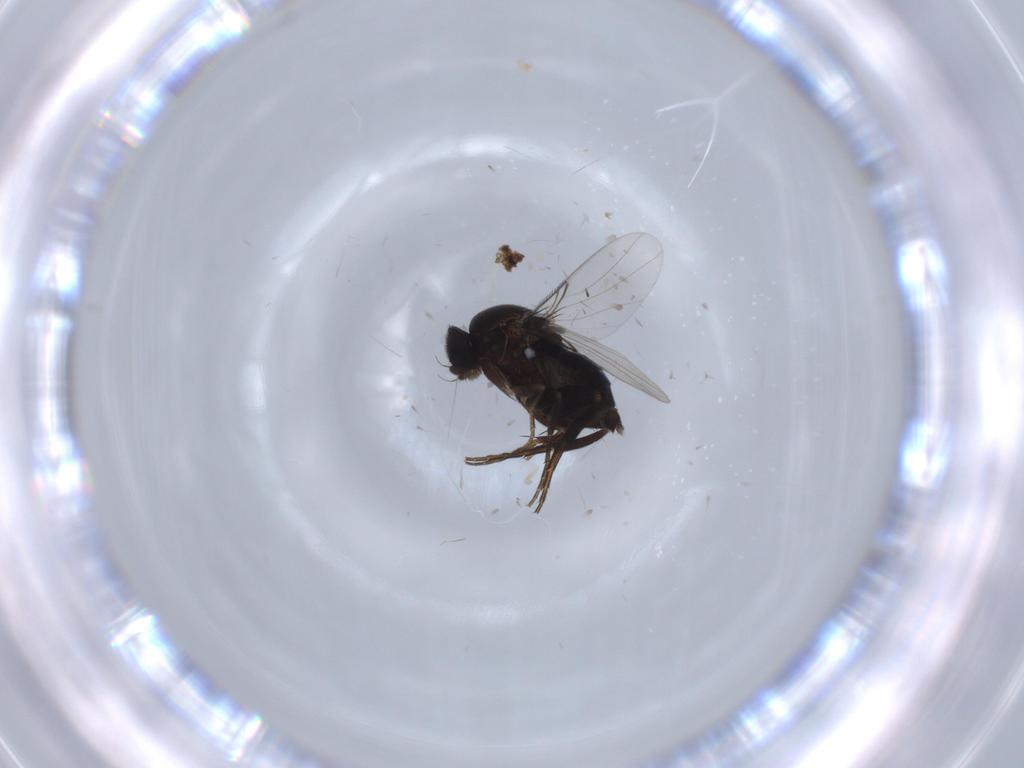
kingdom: Animalia
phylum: Arthropoda
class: Insecta
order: Diptera
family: Phoridae
